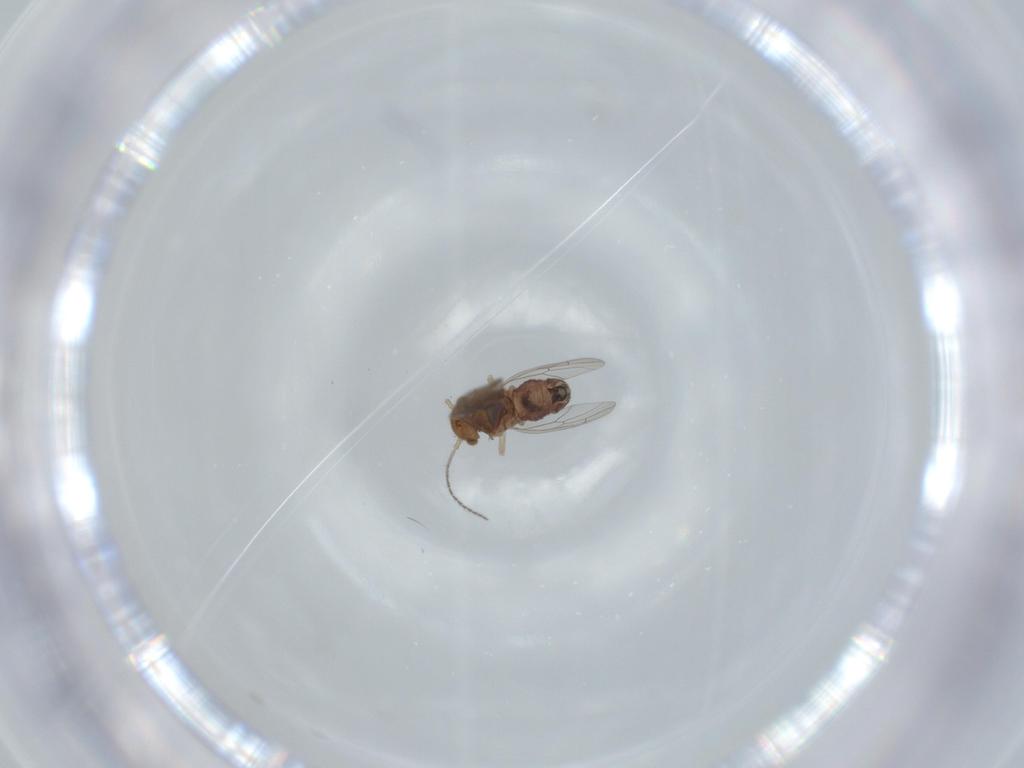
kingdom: Animalia
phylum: Arthropoda
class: Insecta
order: Psocodea
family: Ectopsocidae
